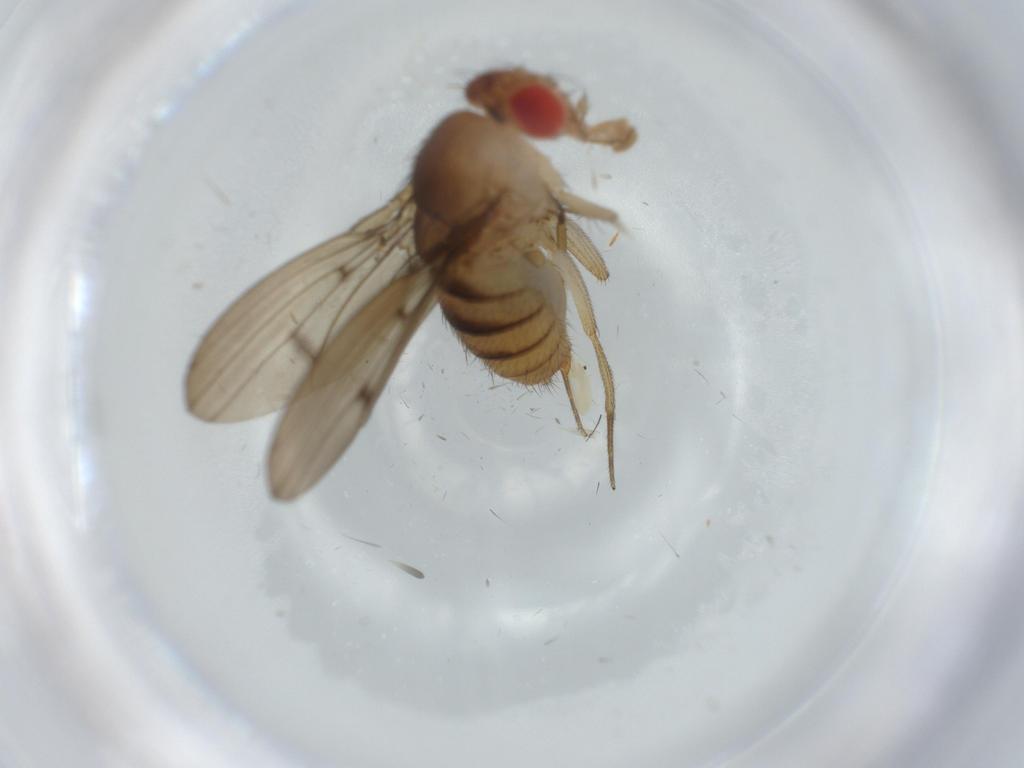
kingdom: Animalia
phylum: Arthropoda
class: Insecta
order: Diptera
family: Drosophilidae
